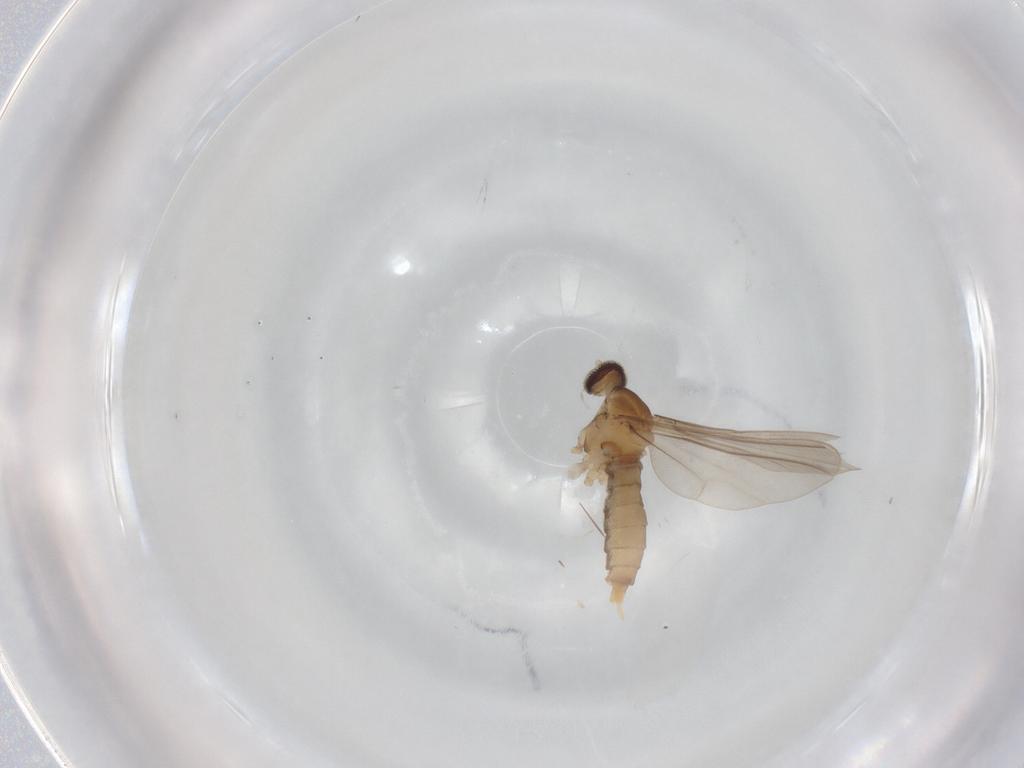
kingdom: Animalia
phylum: Arthropoda
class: Insecta
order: Diptera
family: Cecidomyiidae
